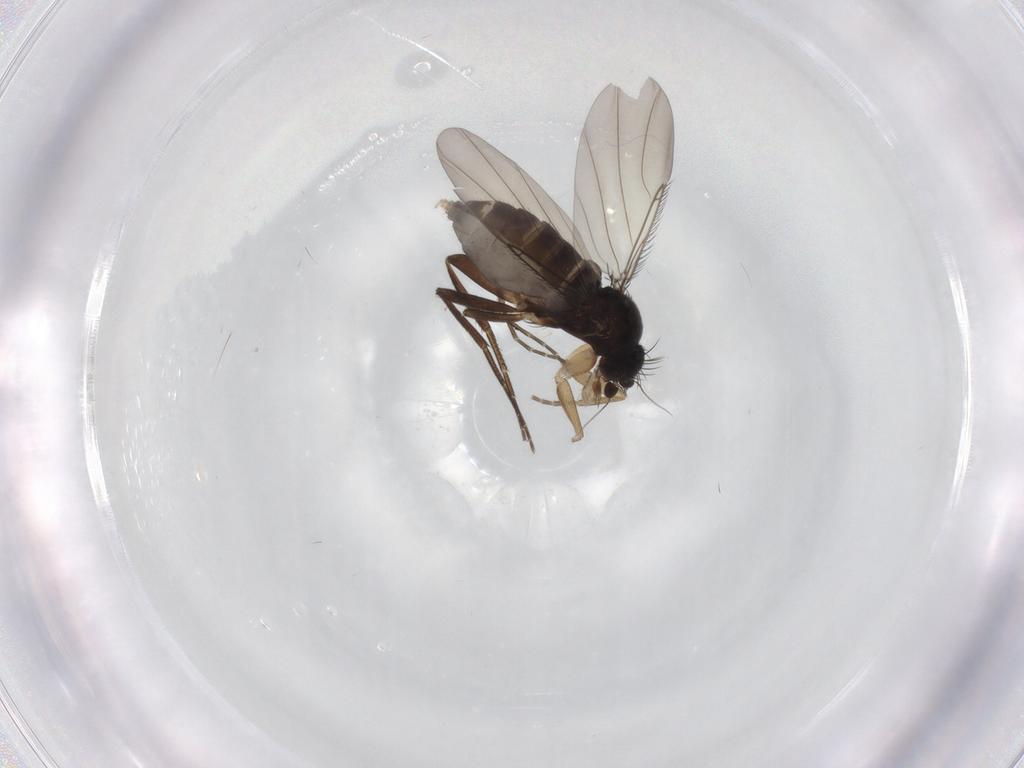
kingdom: Animalia
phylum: Arthropoda
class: Insecta
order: Diptera
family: Phoridae
